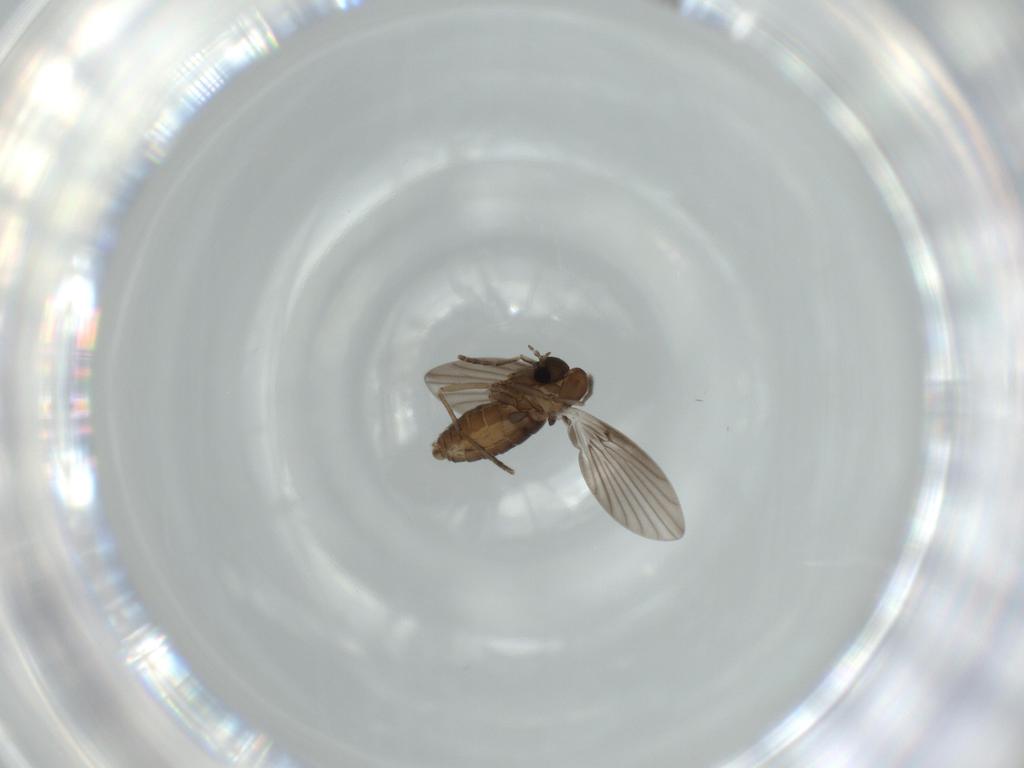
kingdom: Animalia
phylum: Arthropoda
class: Insecta
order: Diptera
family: Psychodidae
